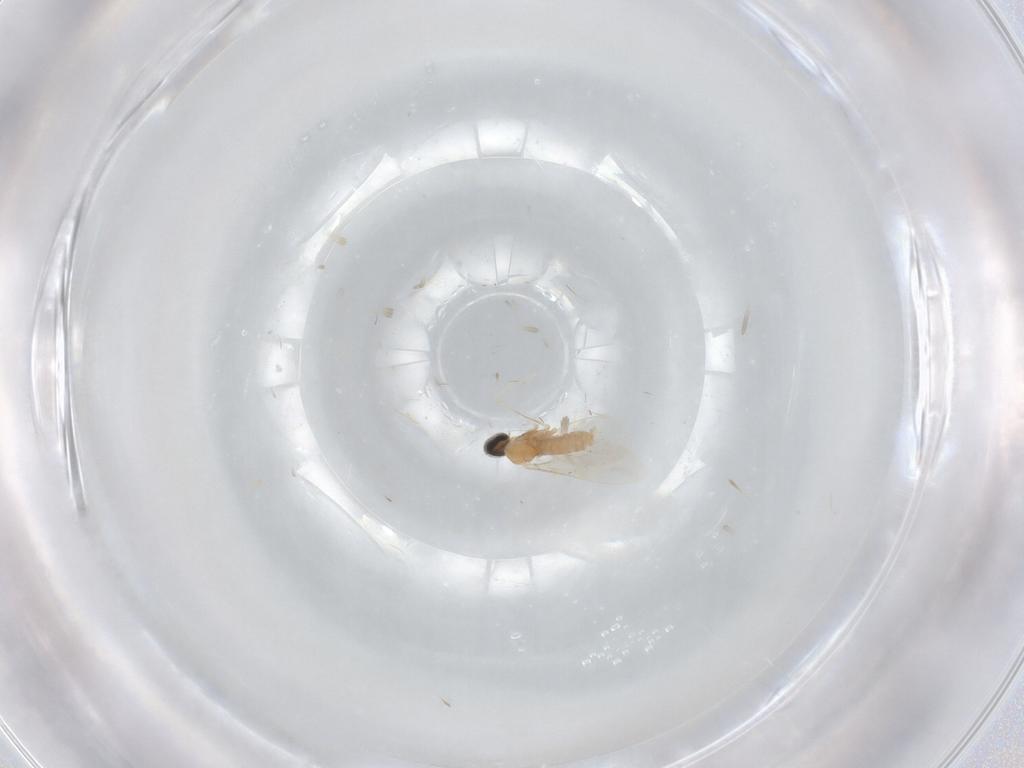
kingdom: Animalia
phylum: Arthropoda
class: Insecta
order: Diptera
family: Cecidomyiidae
